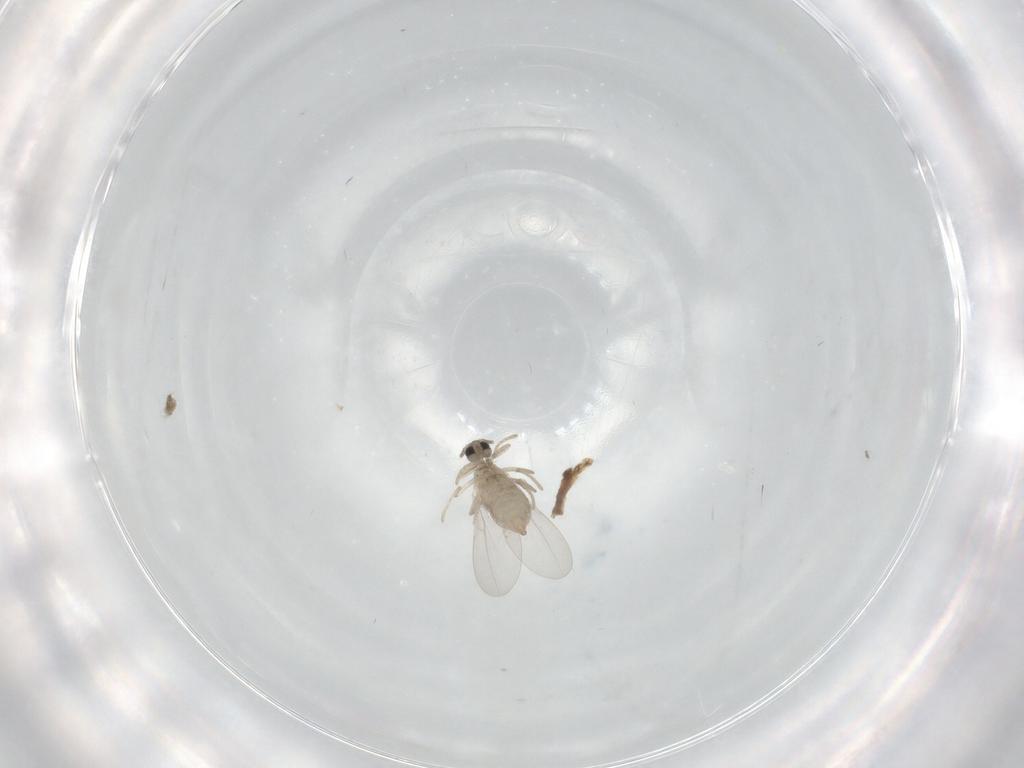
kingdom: Animalia
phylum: Arthropoda
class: Insecta
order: Diptera
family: Cecidomyiidae
